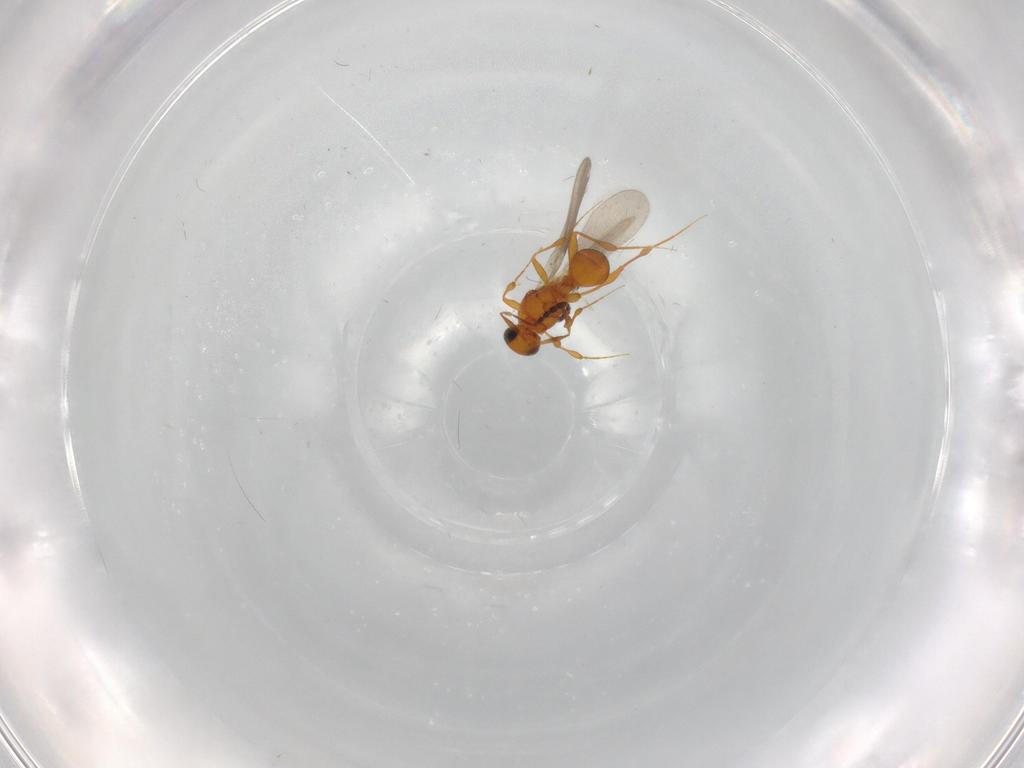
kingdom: Animalia
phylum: Arthropoda
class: Insecta
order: Hymenoptera
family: Platygastridae
